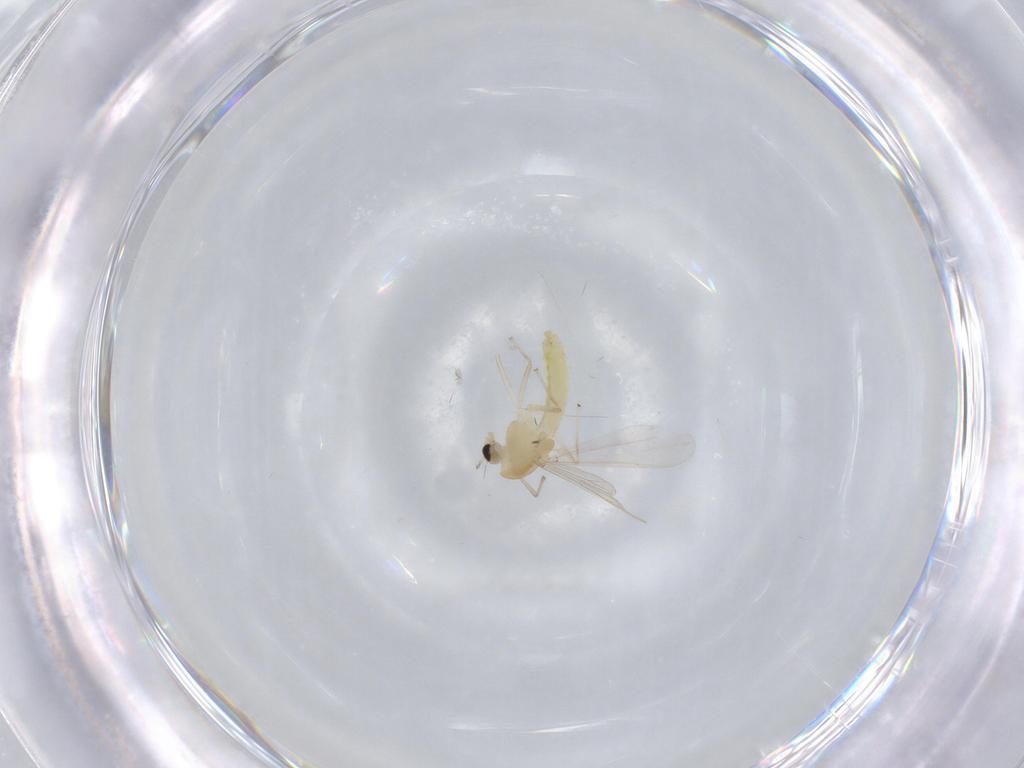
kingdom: Animalia
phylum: Arthropoda
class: Insecta
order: Diptera
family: Chironomidae
